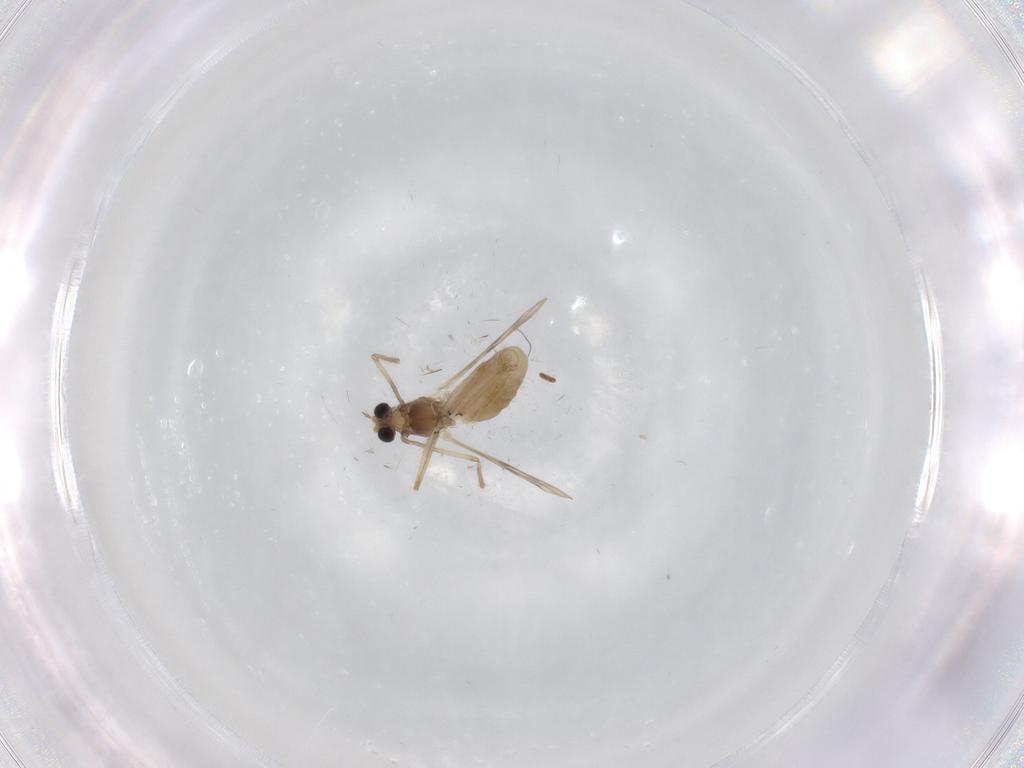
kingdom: Animalia
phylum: Arthropoda
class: Insecta
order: Diptera
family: Chironomidae
